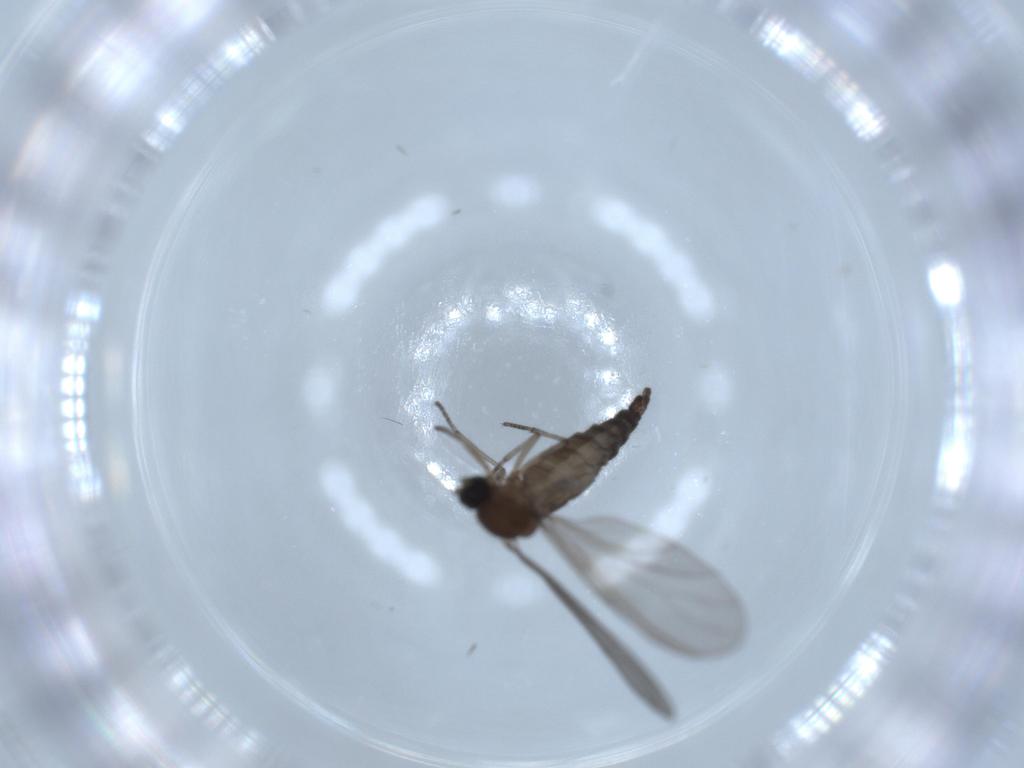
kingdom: Animalia
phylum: Arthropoda
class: Insecta
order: Diptera
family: Sciaridae
